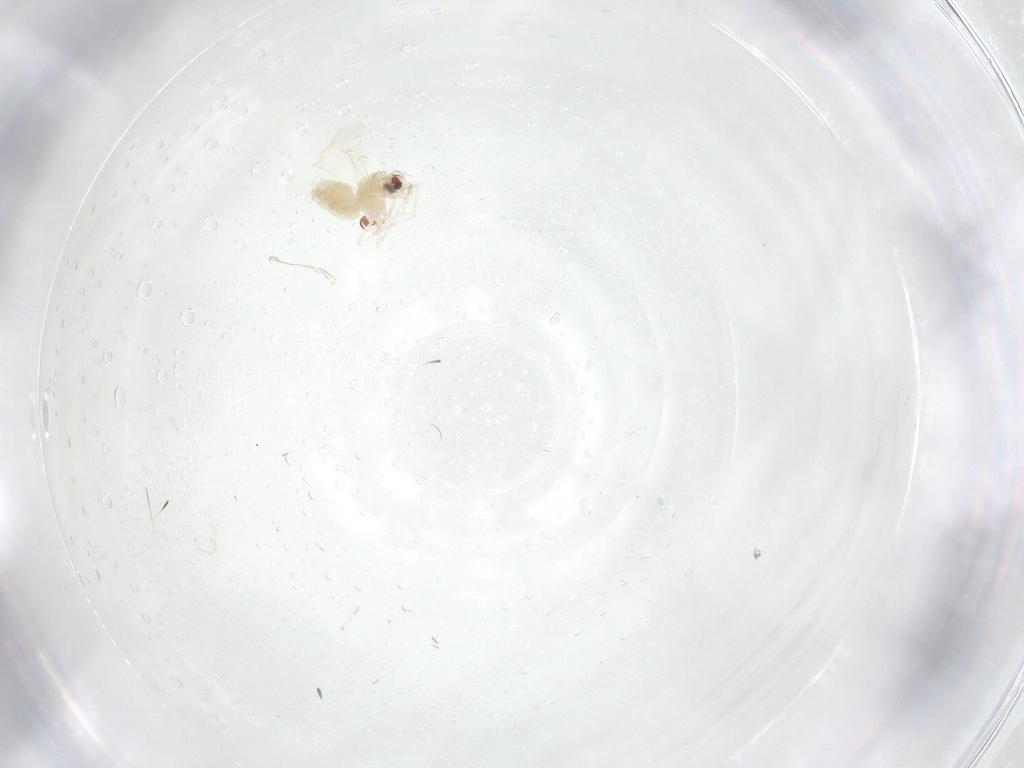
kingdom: Animalia
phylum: Arthropoda
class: Insecta
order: Hemiptera
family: Aleyrodidae
